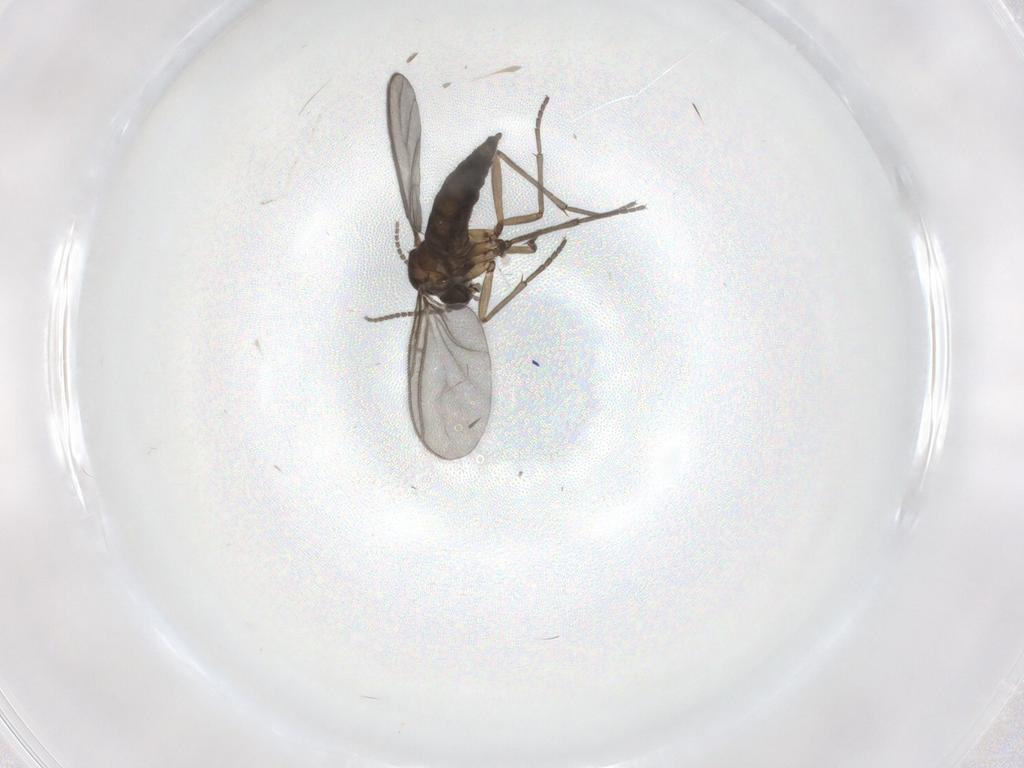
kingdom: Animalia
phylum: Arthropoda
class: Insecta
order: Diptera
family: Sciaridae
